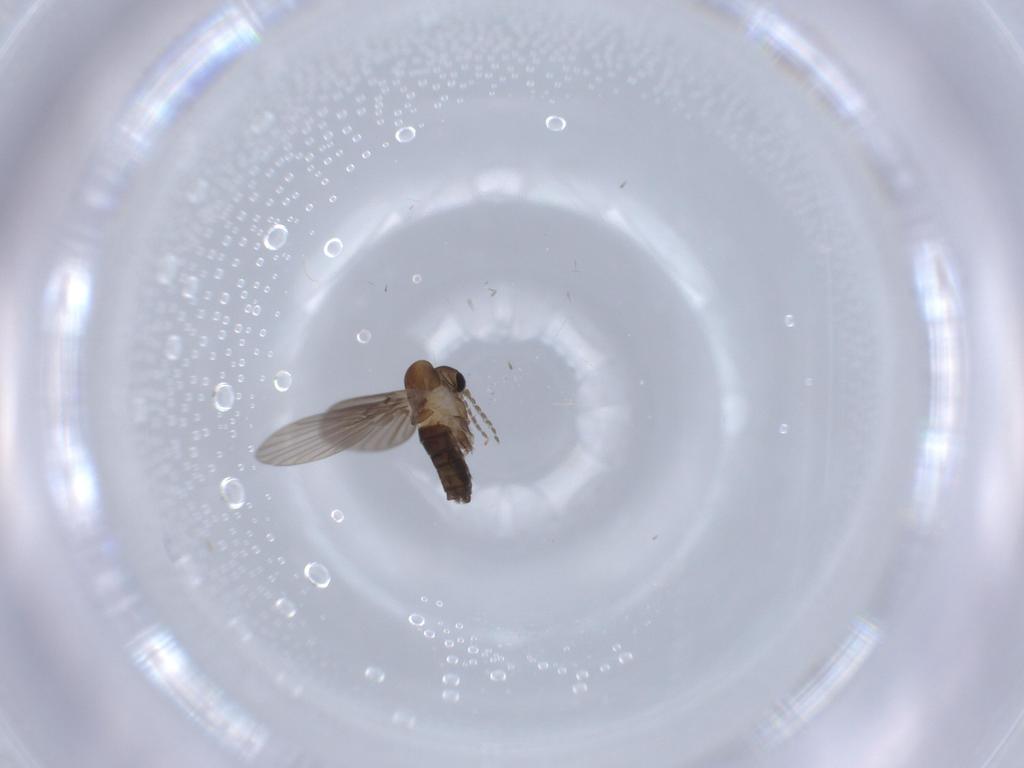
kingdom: Animalia
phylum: Arthropoda
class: Insecta
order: Diptera
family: Psychodidae
